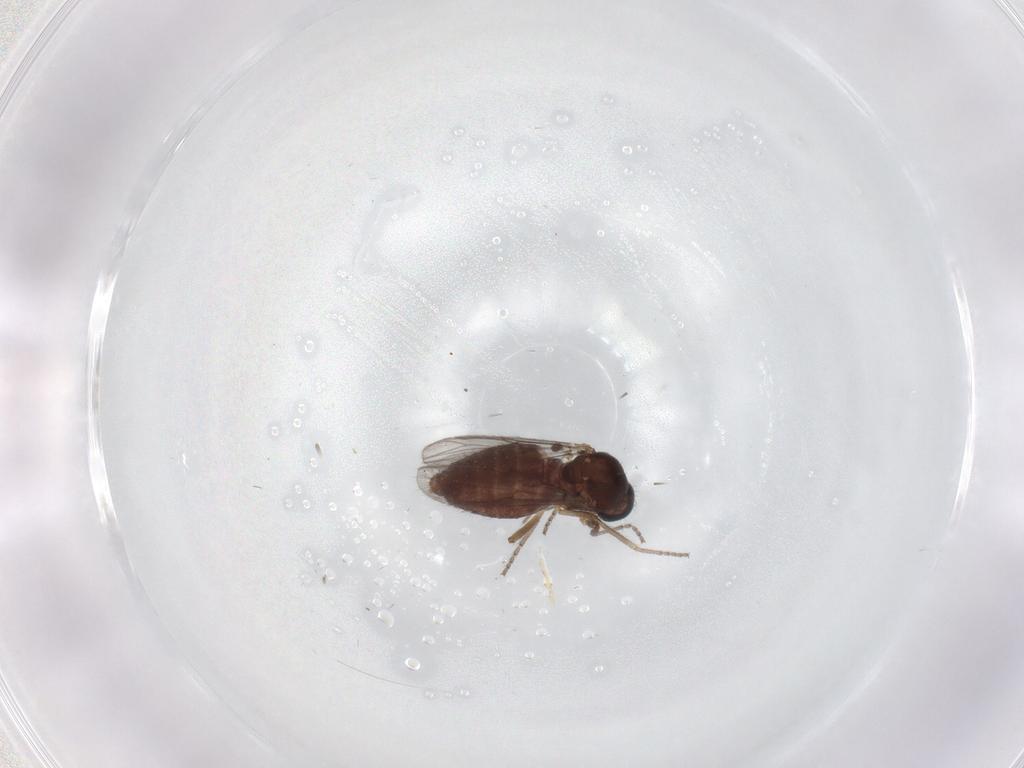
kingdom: Animalia
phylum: Arthropoda
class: Insecta
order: Diptera
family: Ceratopogonidae
